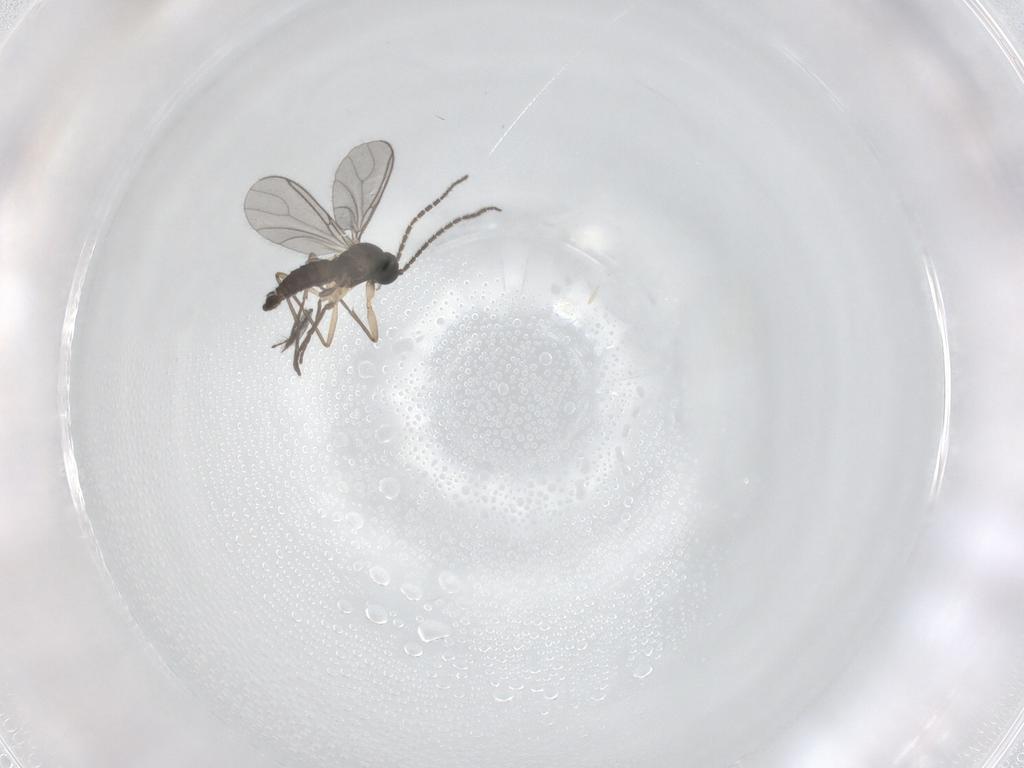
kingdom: Animalia
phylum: Arthropoda
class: Insecta
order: Diptera
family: Sciaridae
